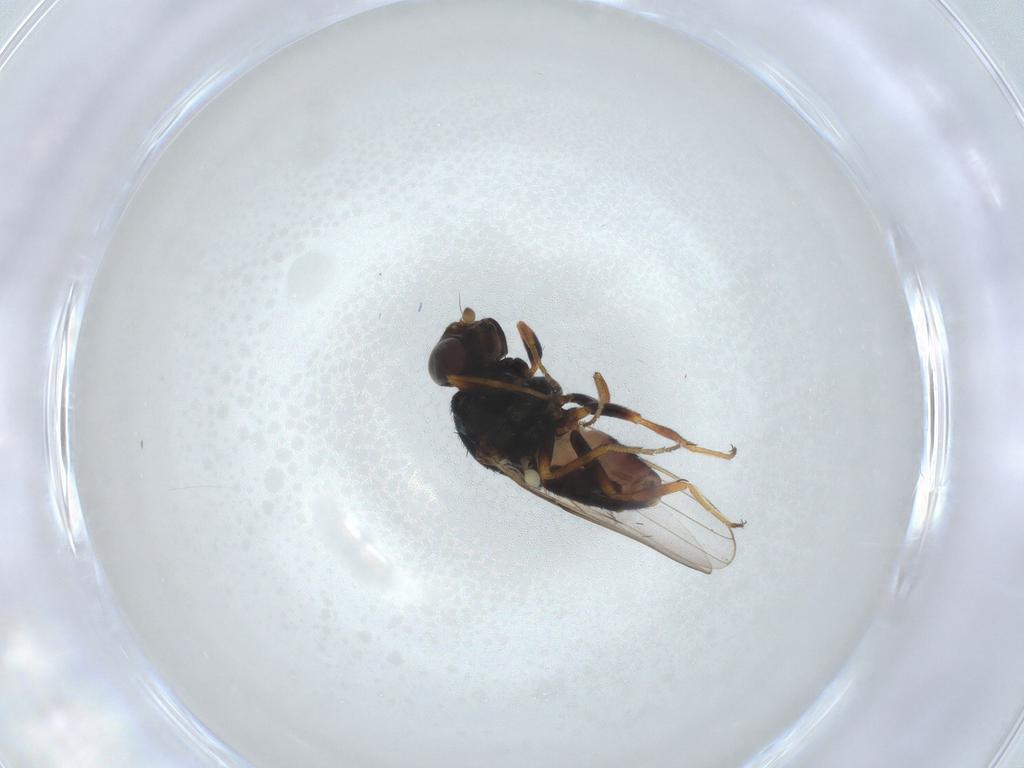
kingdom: Animalia
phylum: Arthropoda
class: Insecta
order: Diptera
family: Chloropidae
